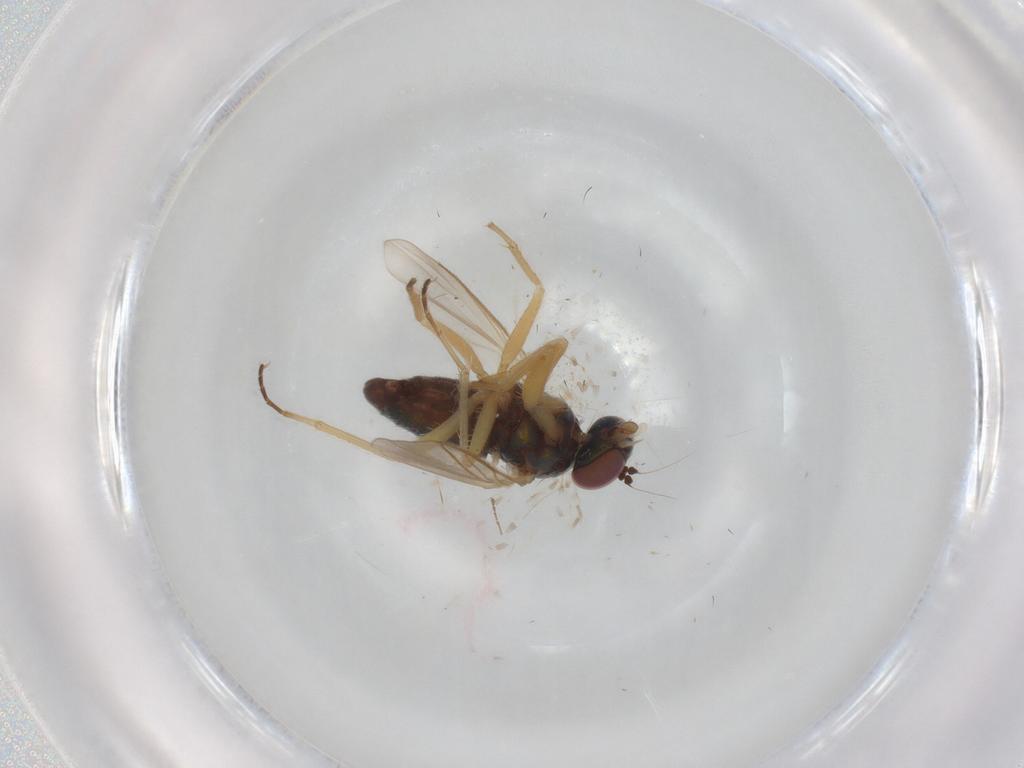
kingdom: Animalia
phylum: Arthropoda
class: Insecta
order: Diptera
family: Dolichopodidae
